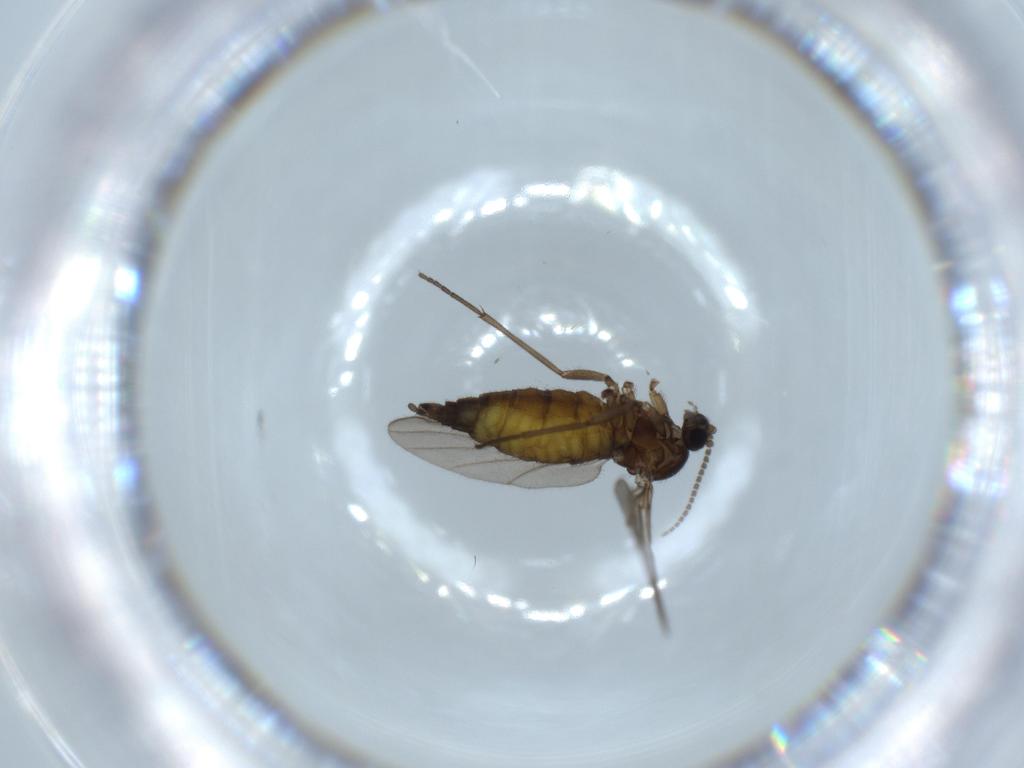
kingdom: Animalia
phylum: Arthropoda
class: Insecta
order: Diptera
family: Sciaridae
